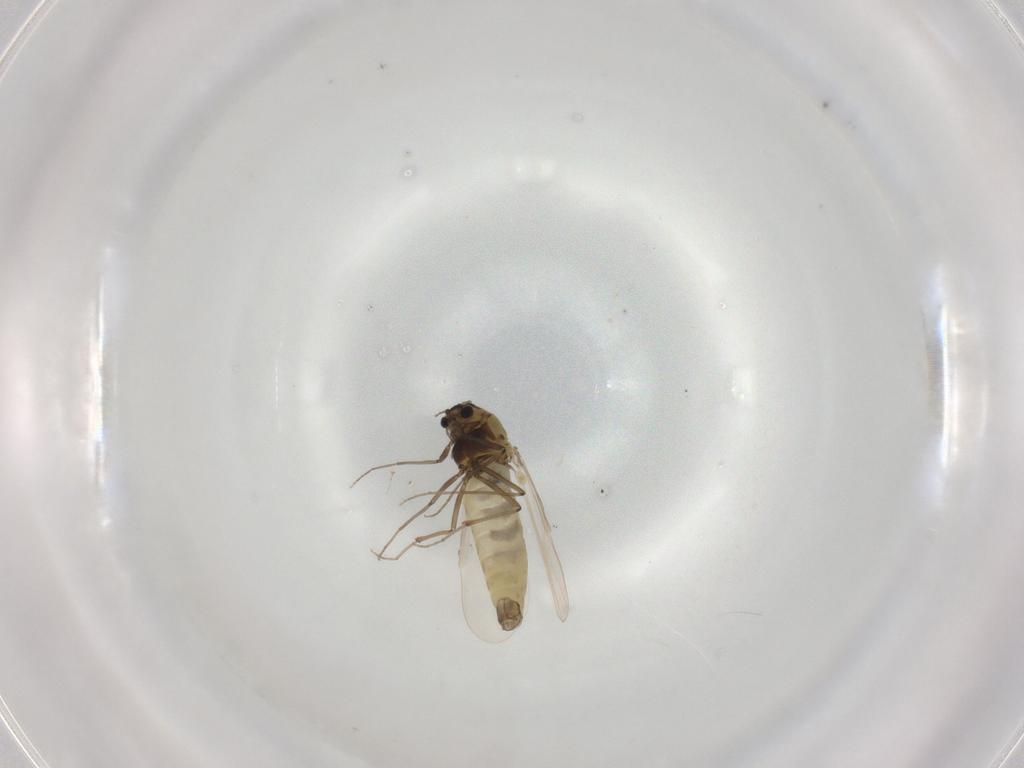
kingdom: Animalia
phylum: Arthropoda
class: Insecta
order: Diptera
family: Chironomidae
